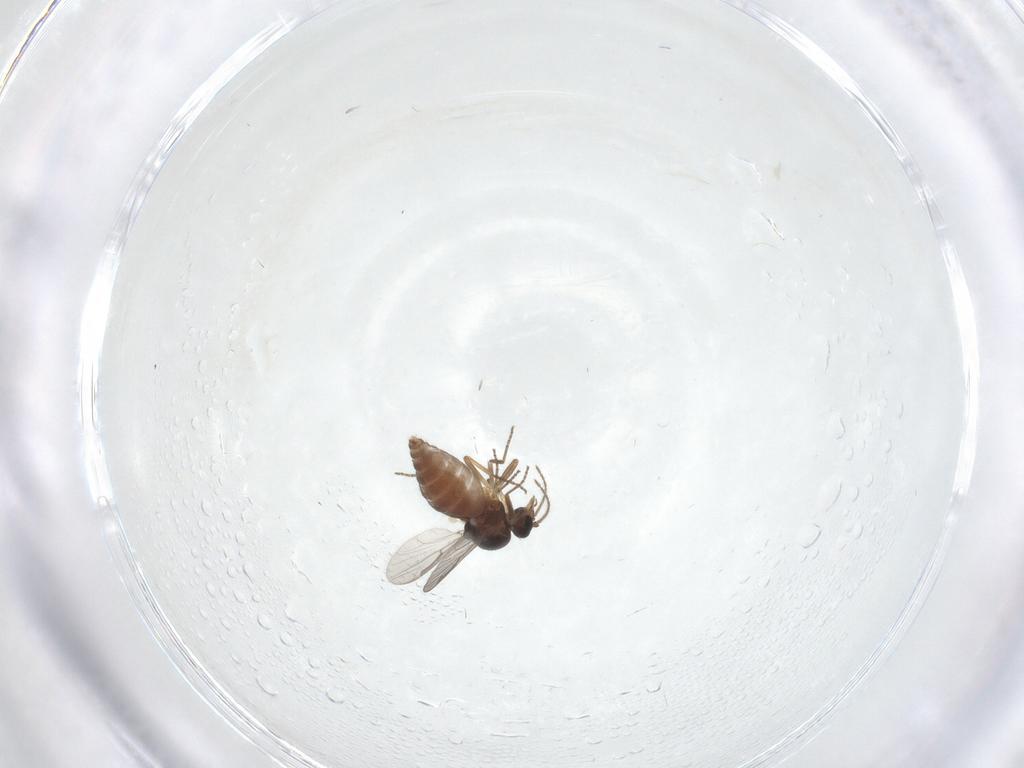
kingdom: Animalia
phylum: Arthropoda
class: Insecta
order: Diptera
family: Ceratopogonidae
